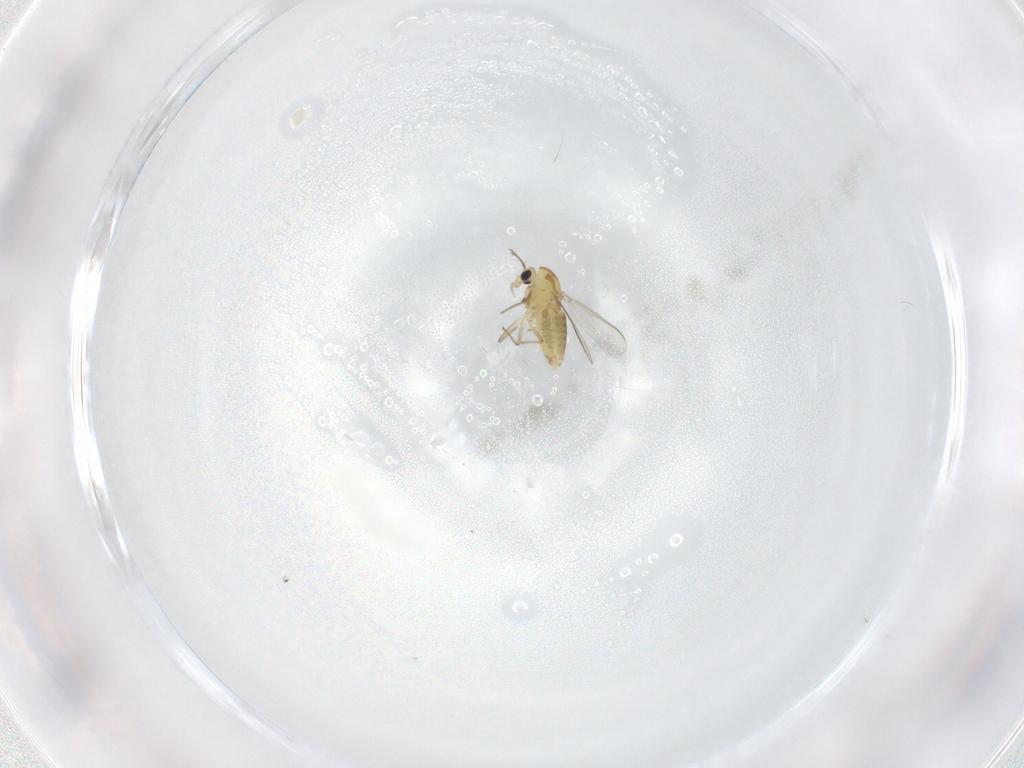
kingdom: Animalia
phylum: Arthropoda
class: Insecta
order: Diptera
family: Chironomidae
